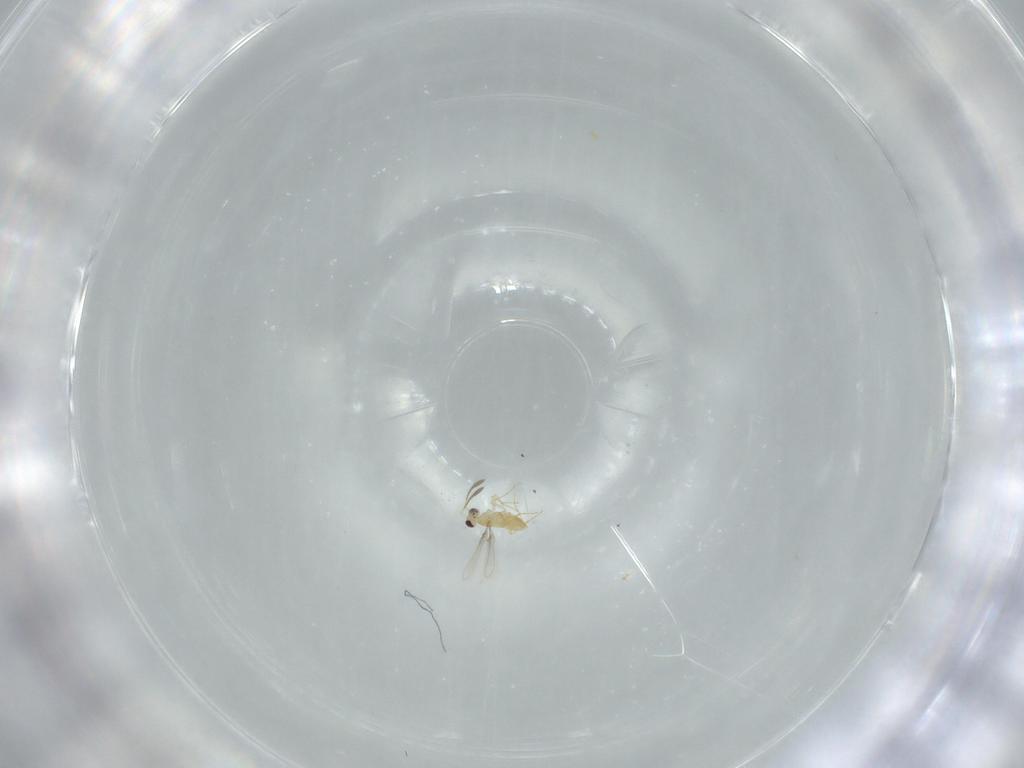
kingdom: Animalia
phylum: Arthropoda
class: Insecta
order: Hymenoptera
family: Mymaridae
